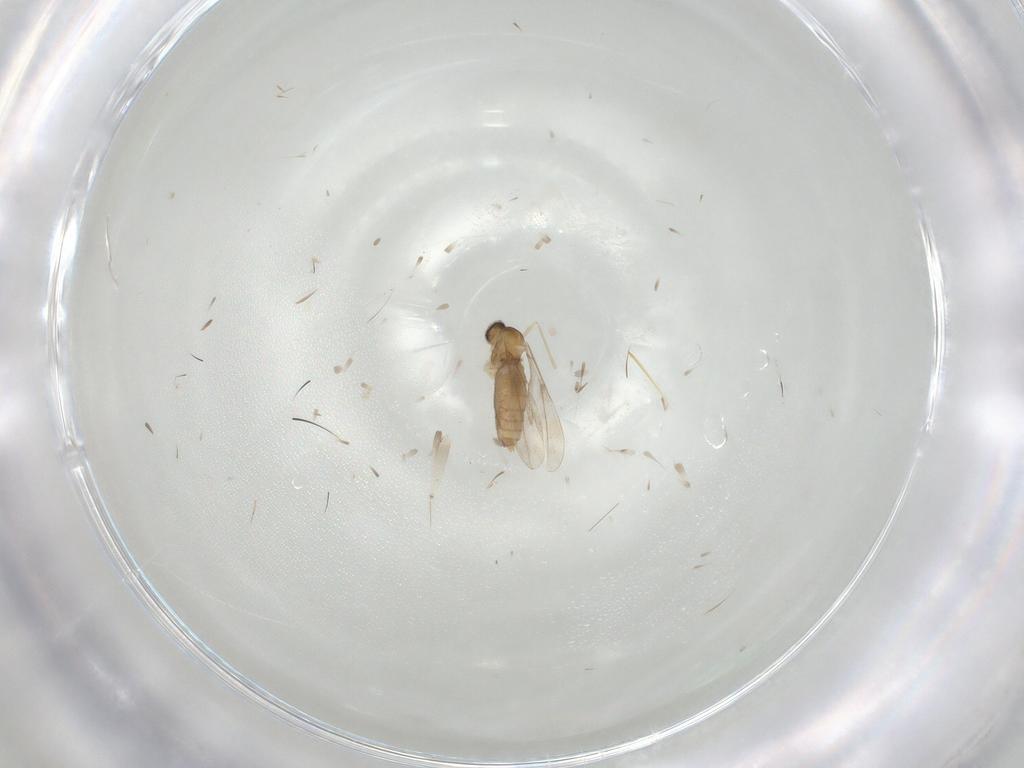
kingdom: Animalia
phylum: Arthropoda
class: Insecta
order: Diptera
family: Cecidomyiidae
